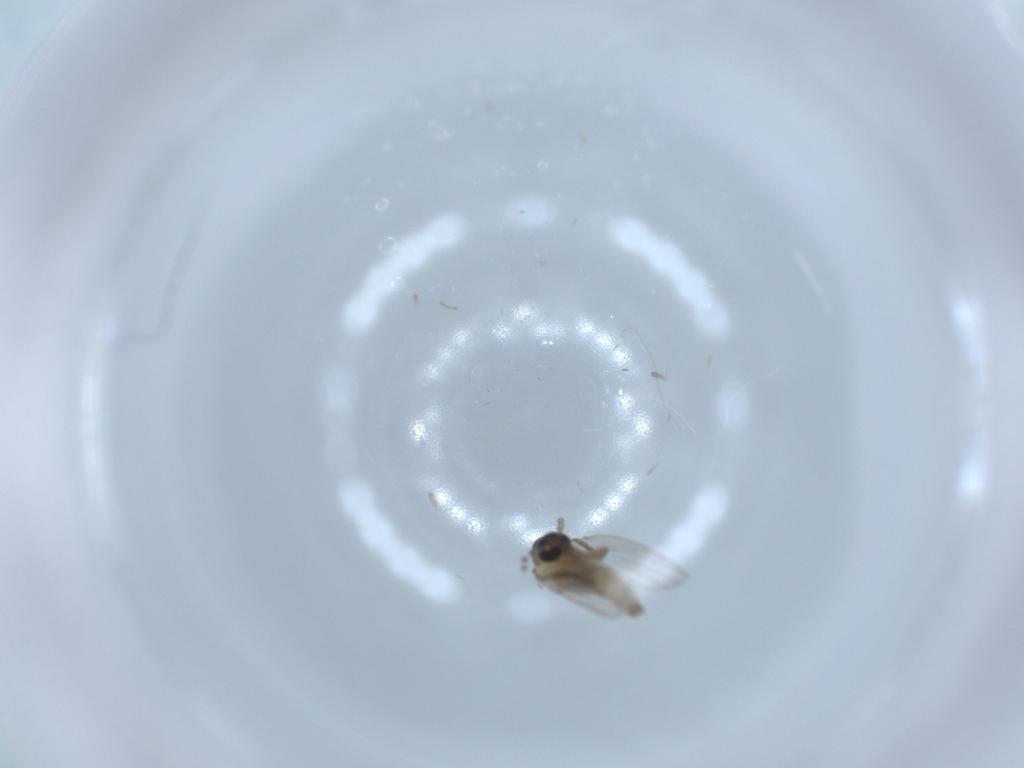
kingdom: Animalia
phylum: Arthropoda
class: Insecta
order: Diptera
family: Psychodidae
